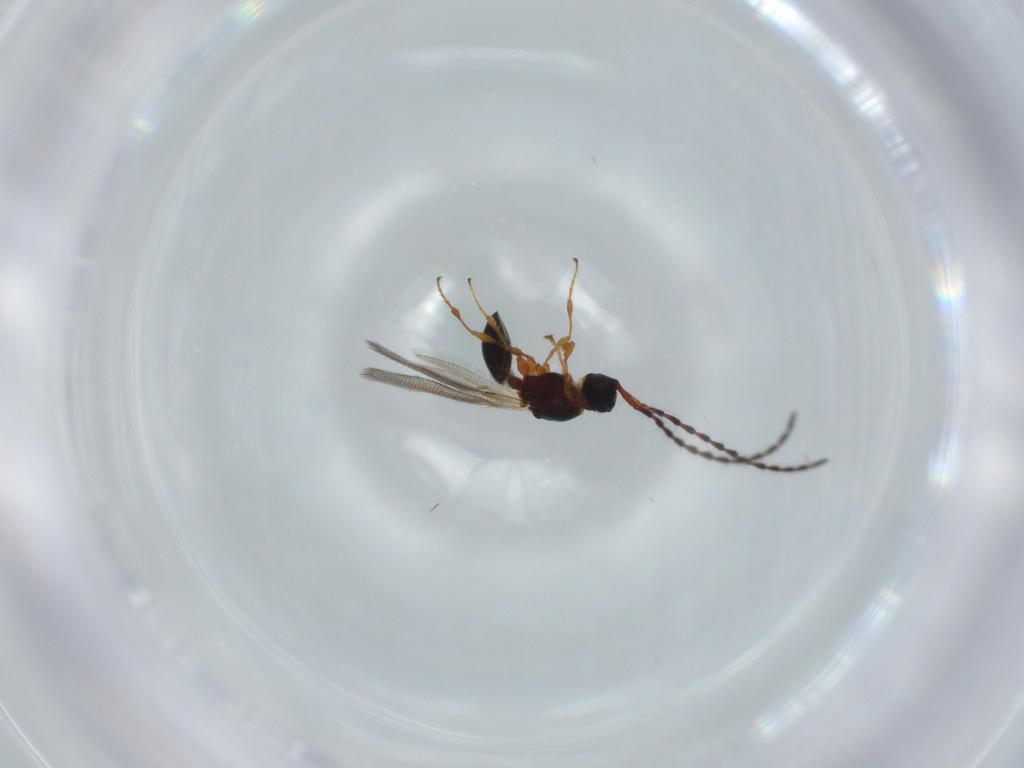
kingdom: Animalia
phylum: Arthropoda
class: Insecta
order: Hymenoptera
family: Diapriidae
